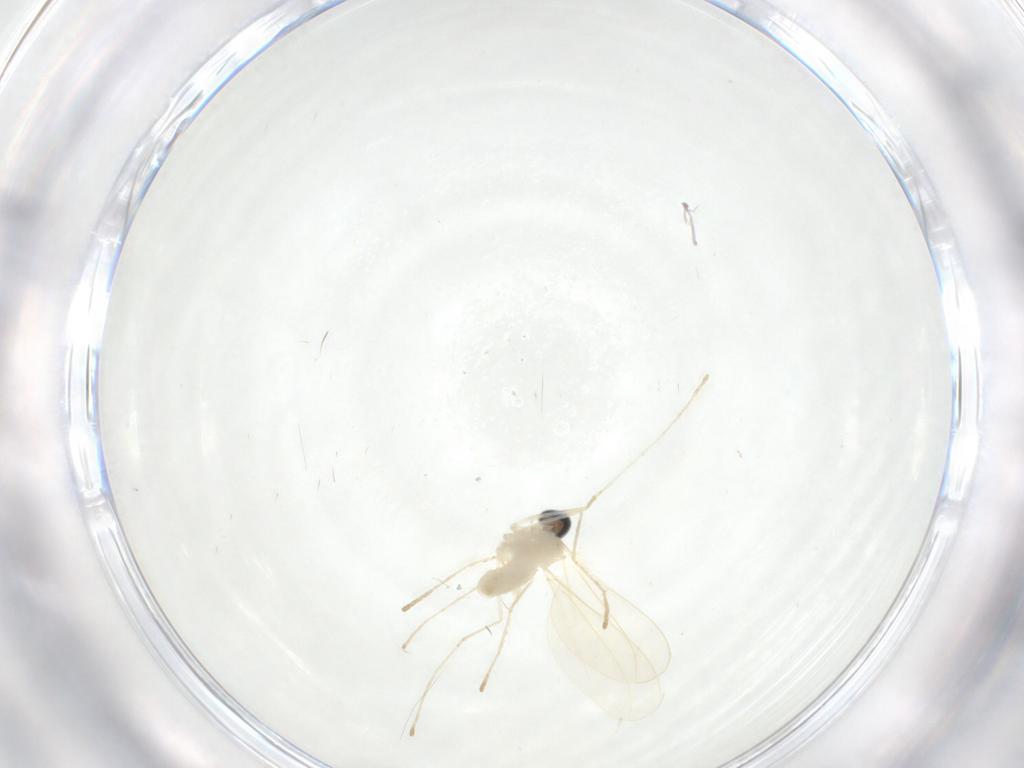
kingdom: Animalia
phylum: Arthropoda
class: Insecta
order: Diptera
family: Cecidomyiidae
